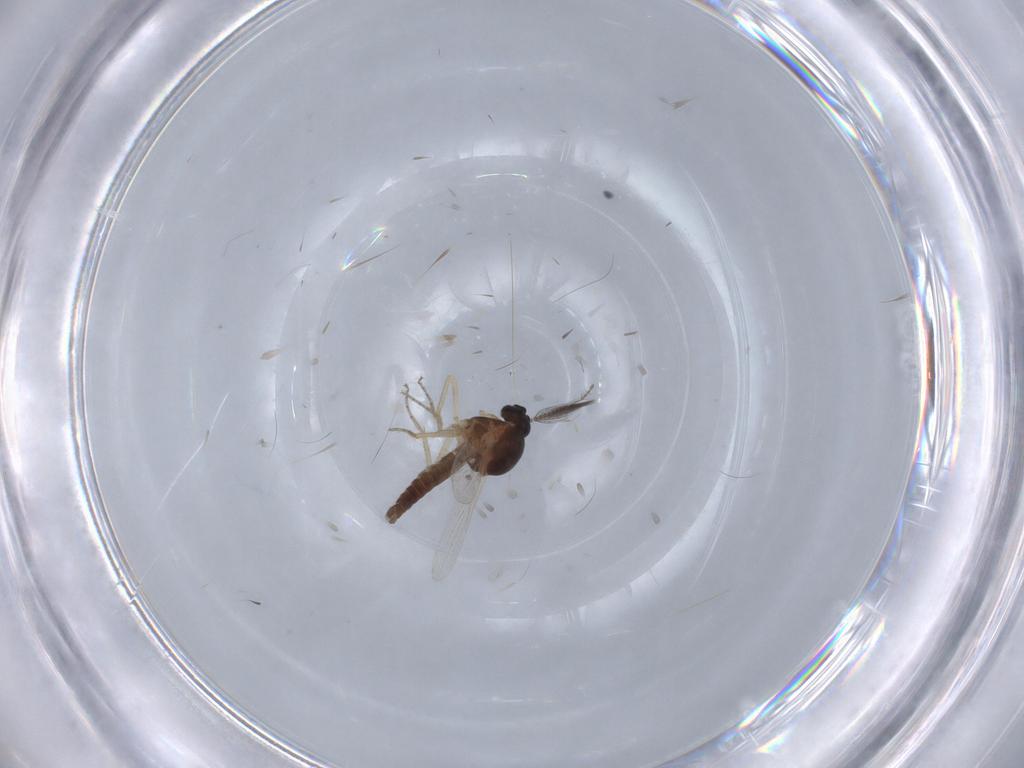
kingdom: Animalia
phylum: Arthropoda
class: Insecta
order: Diptera
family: Ceratopogonidae
